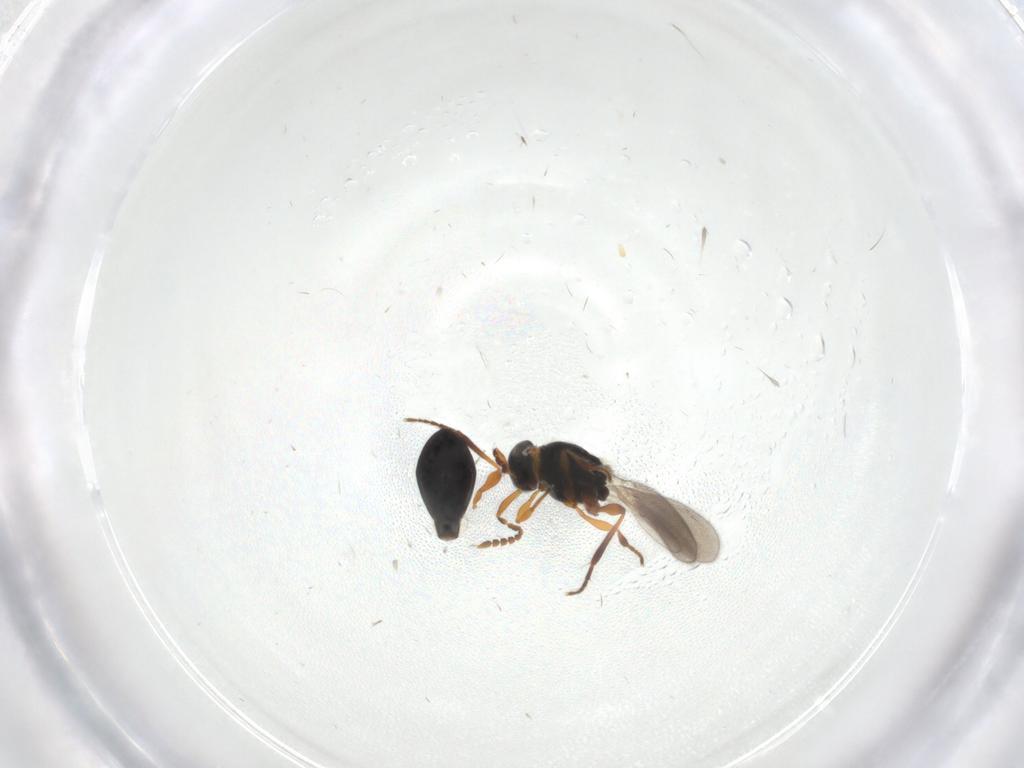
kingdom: Animalia
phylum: Arthropoda
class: Insecta
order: Hymenoptera
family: Platygastridae
